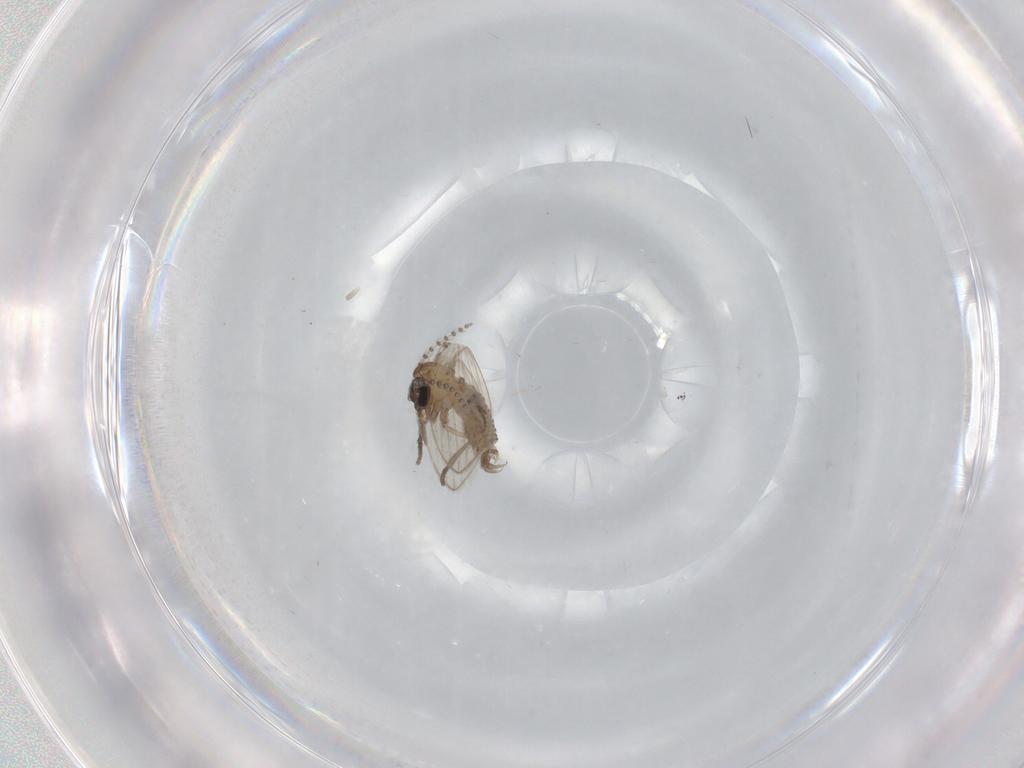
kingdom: Animalia
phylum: Arthropoda
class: Insecta
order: Diptera
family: Psychodidae
